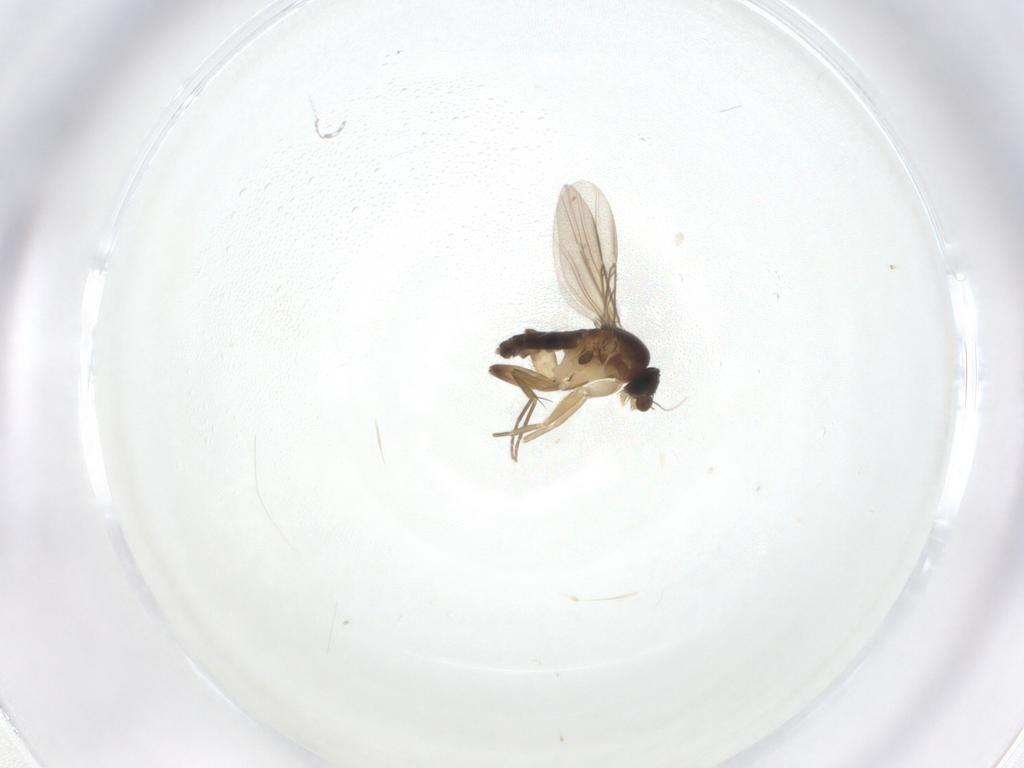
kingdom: Animalia
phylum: Arthropoda
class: Insecta
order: Diptera
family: Phoridae
